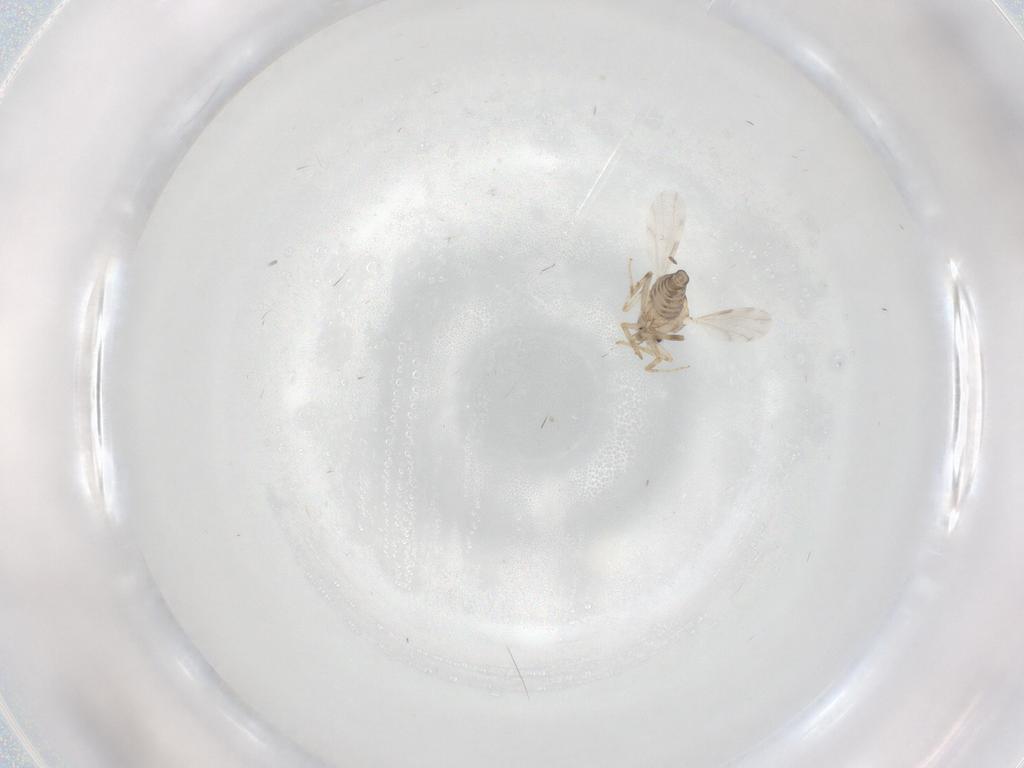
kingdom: Animalia
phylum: Arthropoda
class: Insecta
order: Diptera
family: Ceratopogonidae
